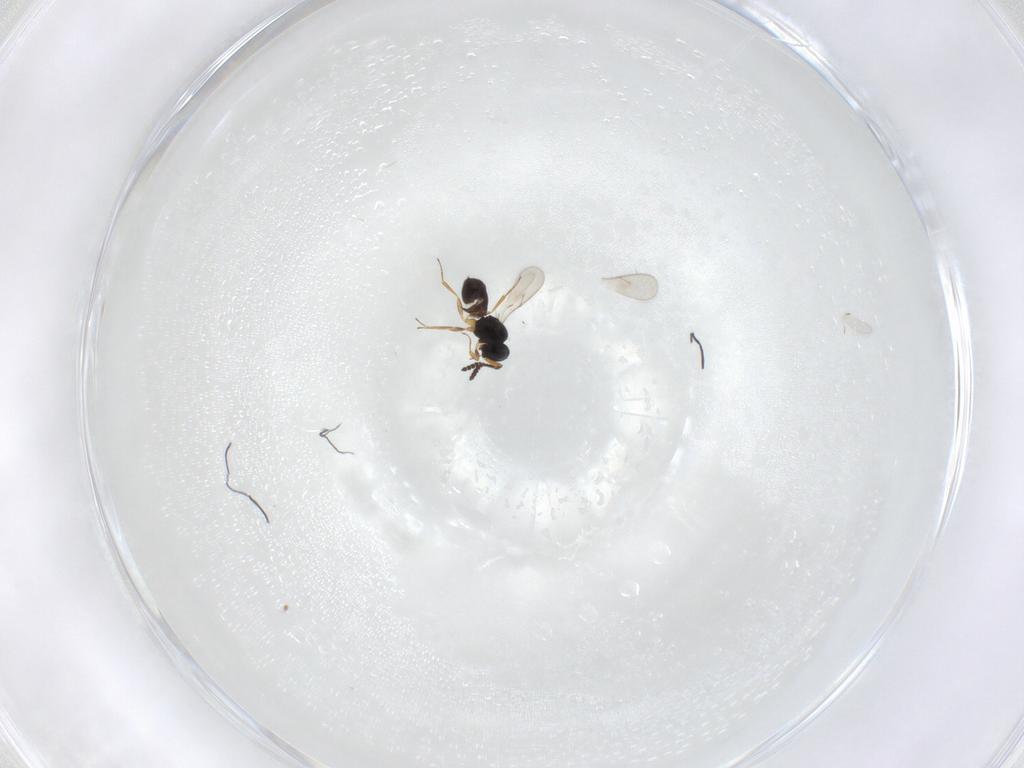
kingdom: Animalia
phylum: Arthropoda
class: Insecta
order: Hymenoptera
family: Scelionidae
